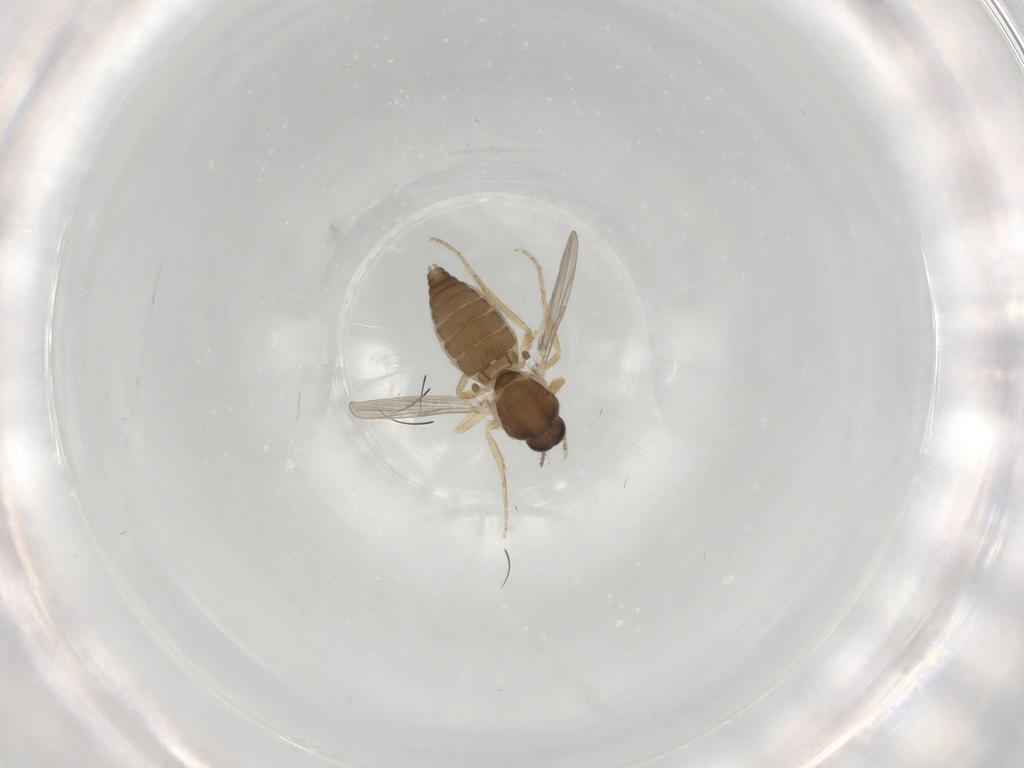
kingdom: Animalia
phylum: Arthropoda
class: Insecta
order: Diptera
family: Ceratopogonidae
